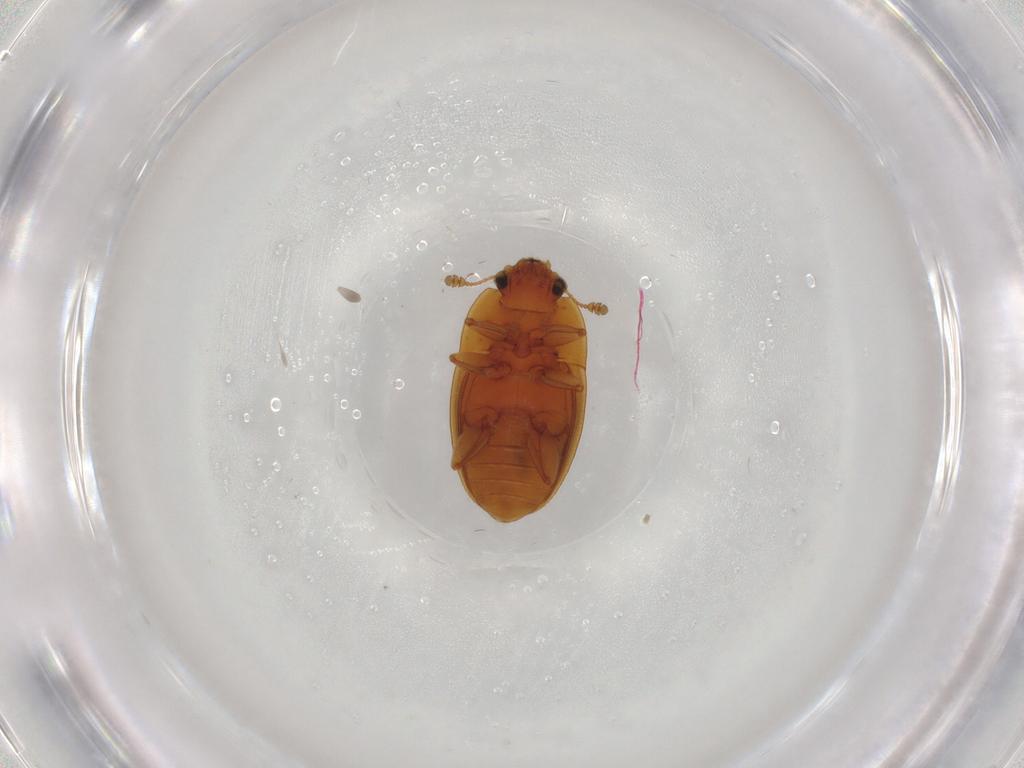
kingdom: Animalia
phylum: Arthropoda
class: Insecta
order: Coleoptera
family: Nitidulidae
